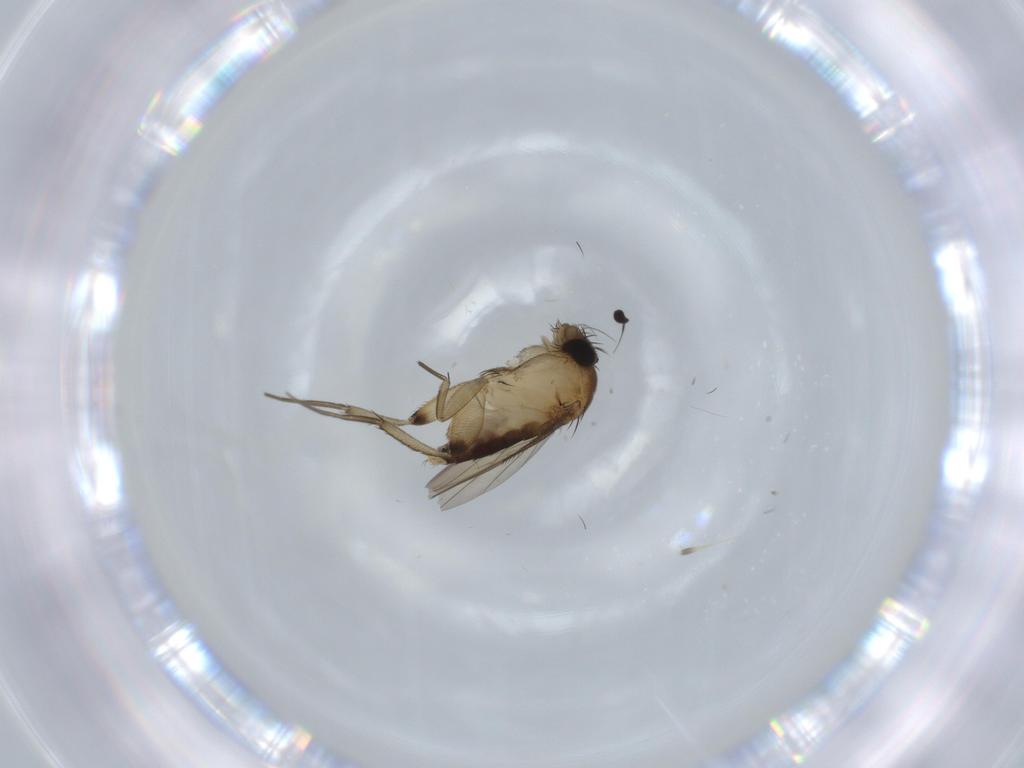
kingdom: Animalia
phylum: Arthropoda
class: Insecta
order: Diptera
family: Phoridae
